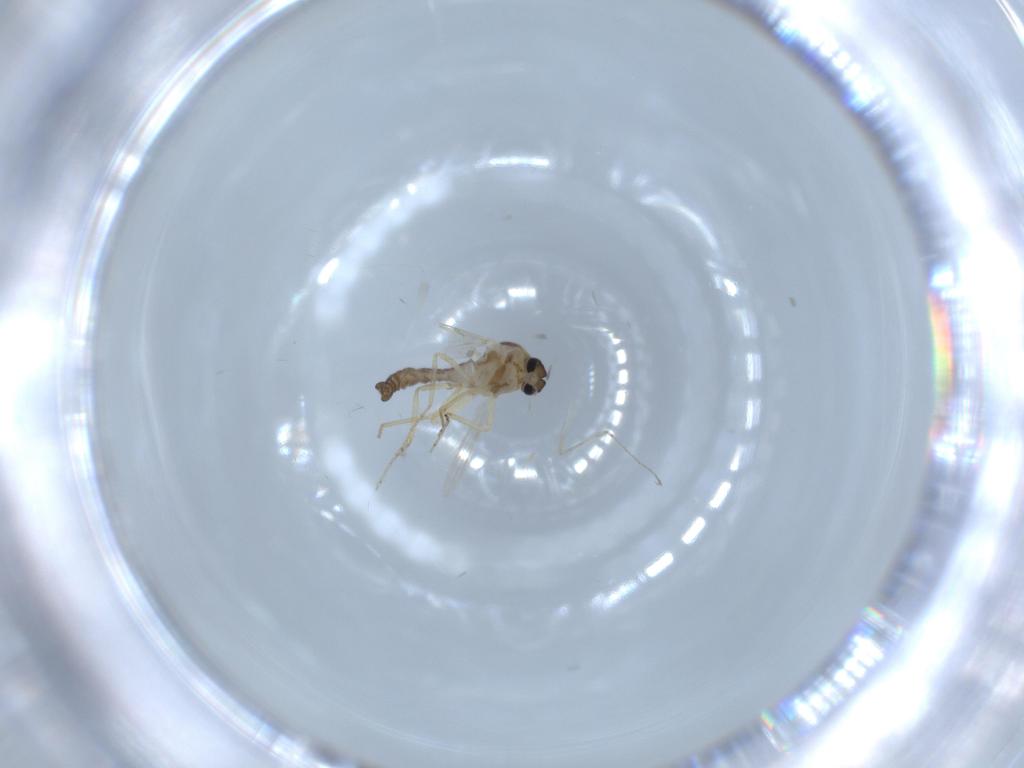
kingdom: Animalia
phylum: Arthropoda
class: Insecta
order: Diptera
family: Ceratopogonidae
